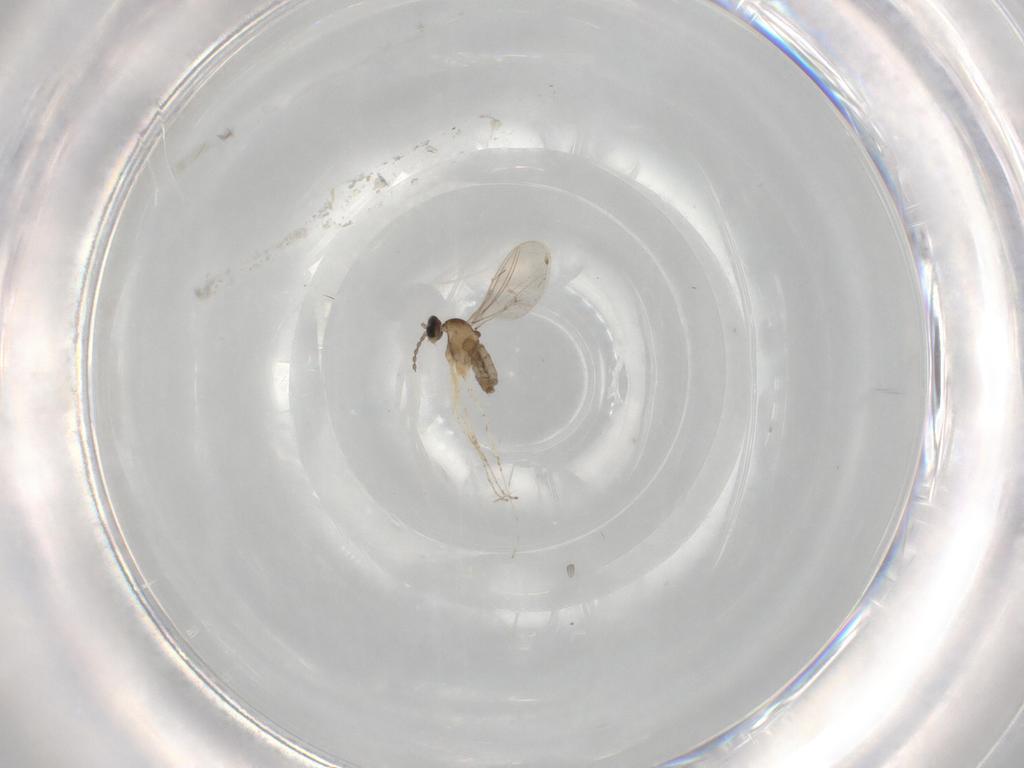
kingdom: Animalia
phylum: Arthropoda
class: Insecta
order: Diptera
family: Cecidomyiidae
